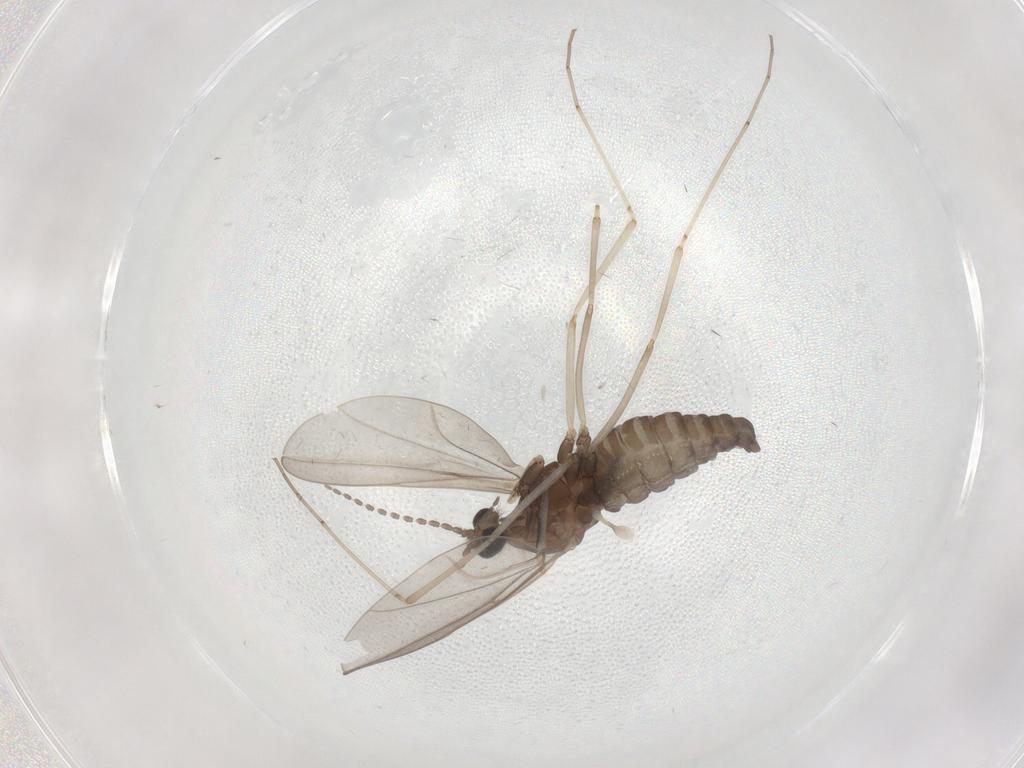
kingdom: Animalia
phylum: Arthropoda
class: Insecta
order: Diptera
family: Cecidomyiidae
